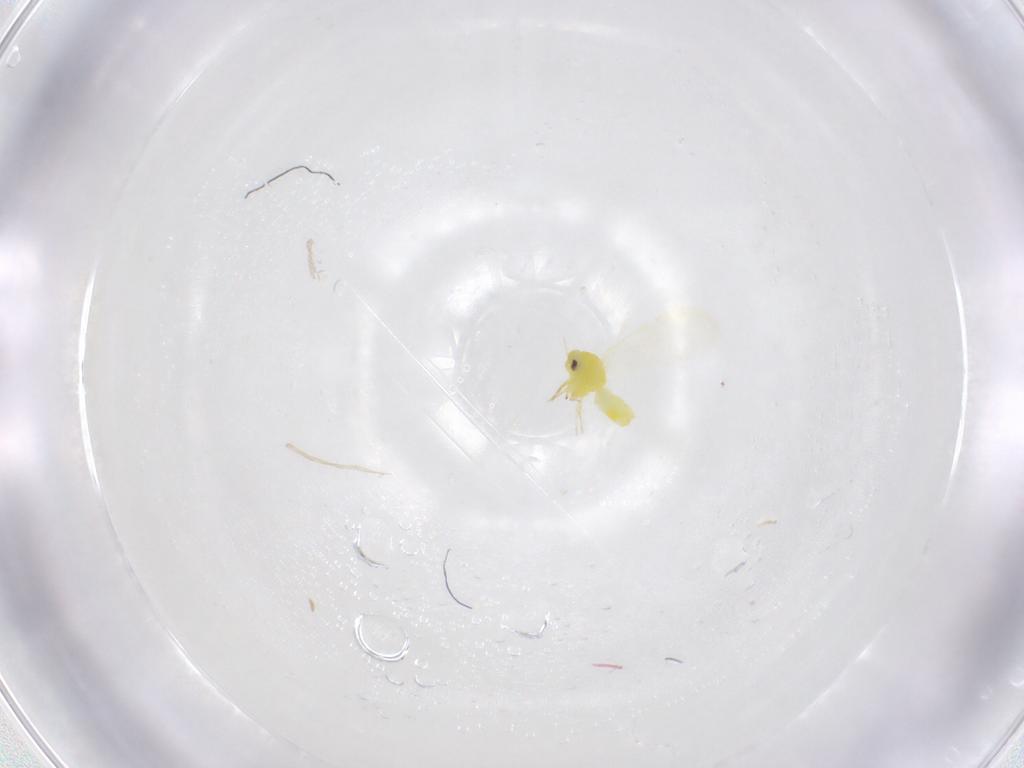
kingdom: Animalia
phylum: Arthropoda
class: Insecta
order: Hemiptera
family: Aleyrodidae
